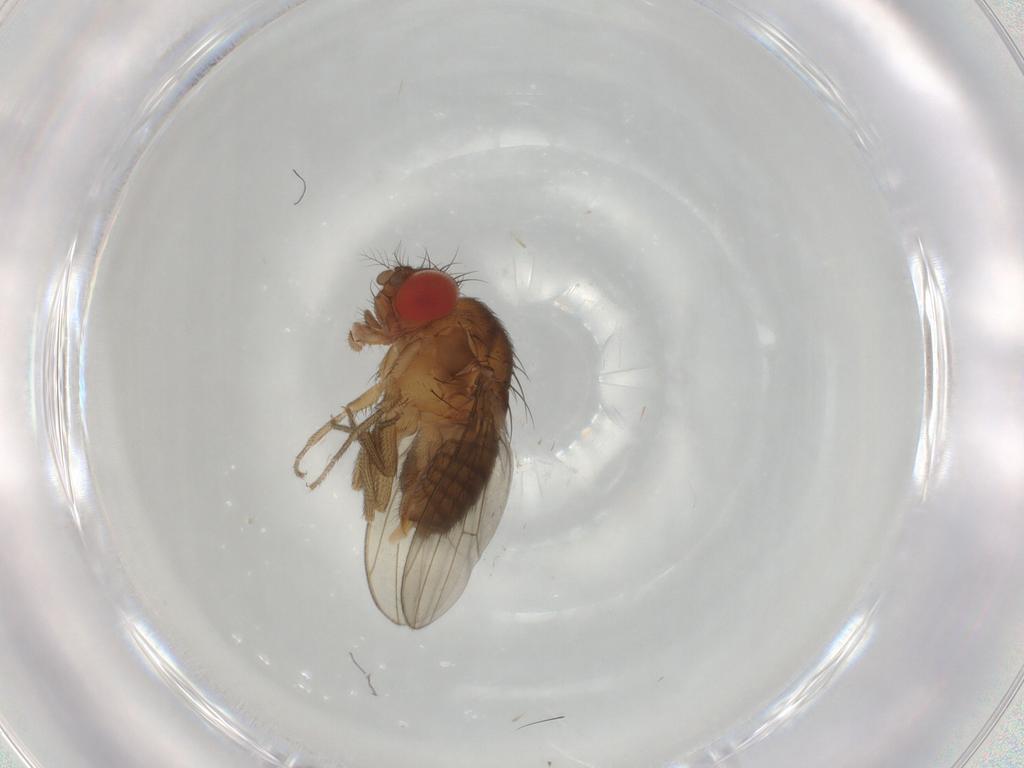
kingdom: Animalia
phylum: Arthropoda
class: Insecta
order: Diptera
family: Drosophilidae
